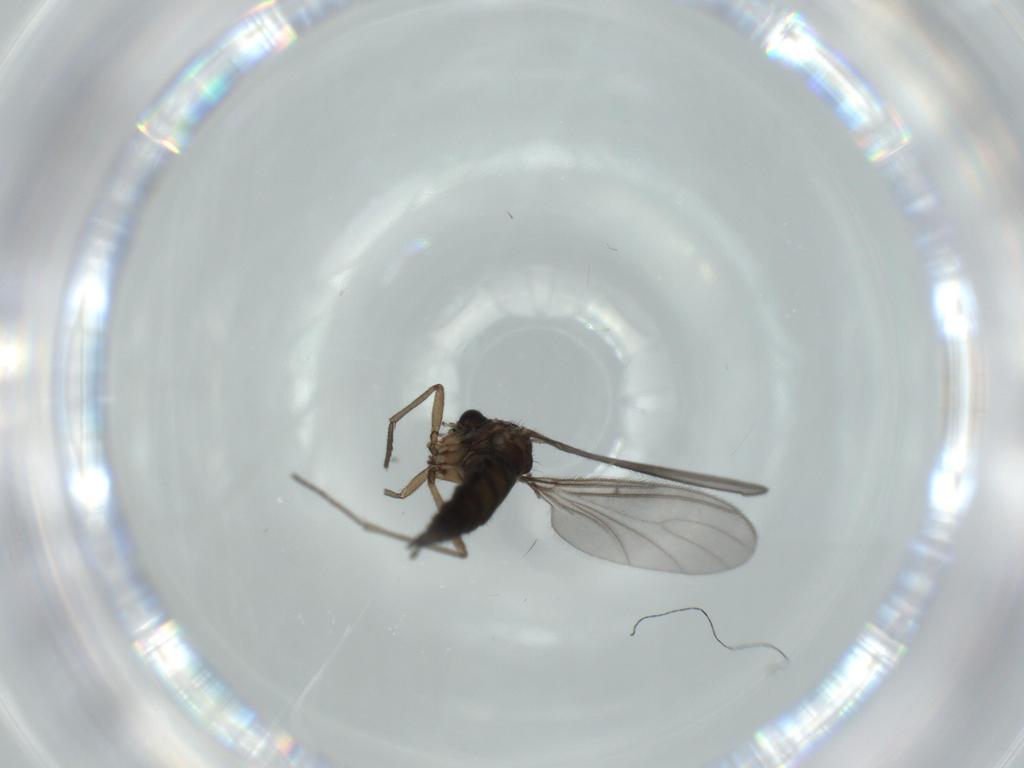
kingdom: Animalia
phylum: Arthropoda
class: Insecta
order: Diptera
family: Sciaridae
